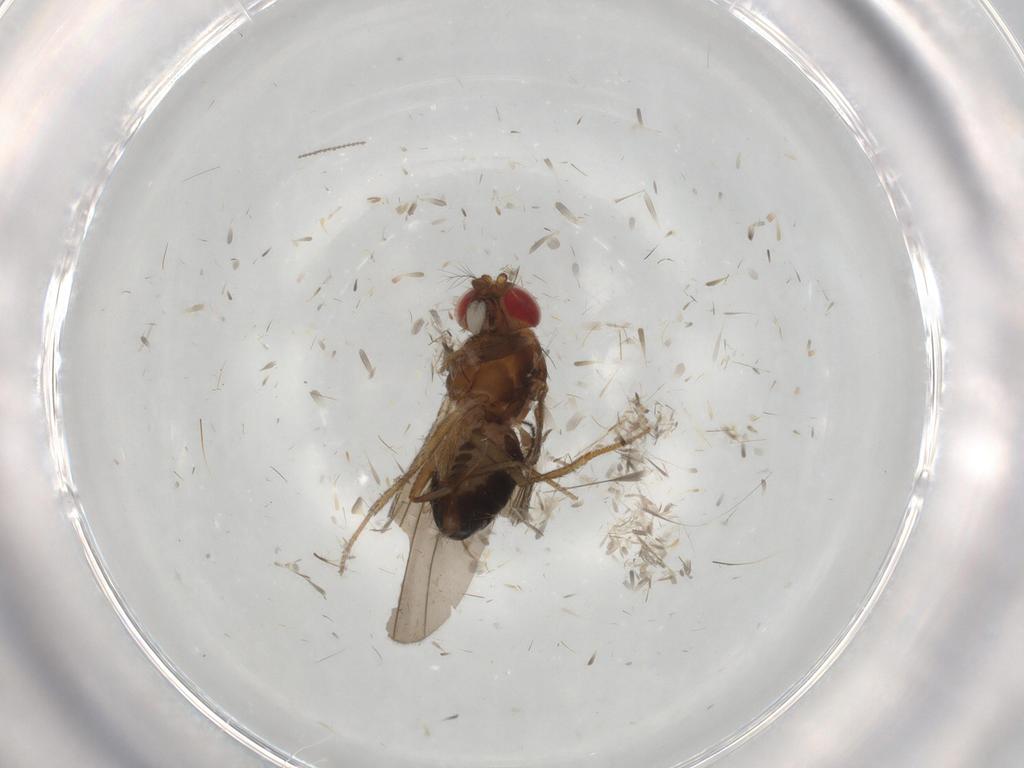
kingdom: Animalia
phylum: Arthropoda
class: Insecta
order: Diptera
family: Drosophilidae
